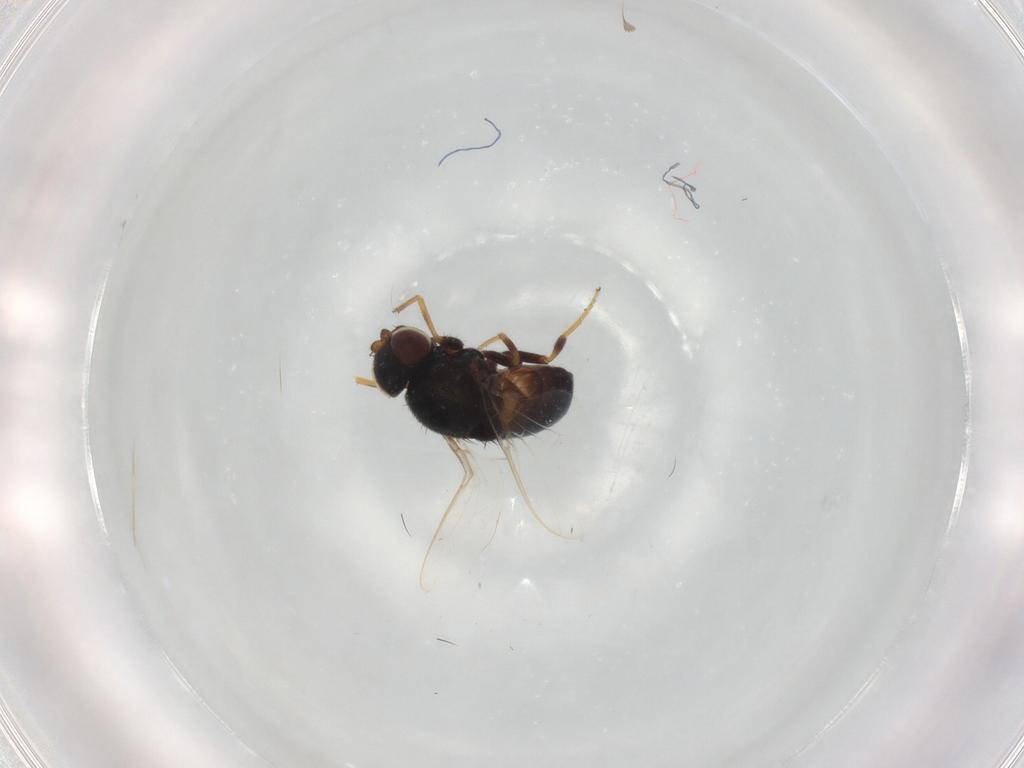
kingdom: Animalia
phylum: Arthropoda
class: Insecta
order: Diptera
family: Chloropidae
